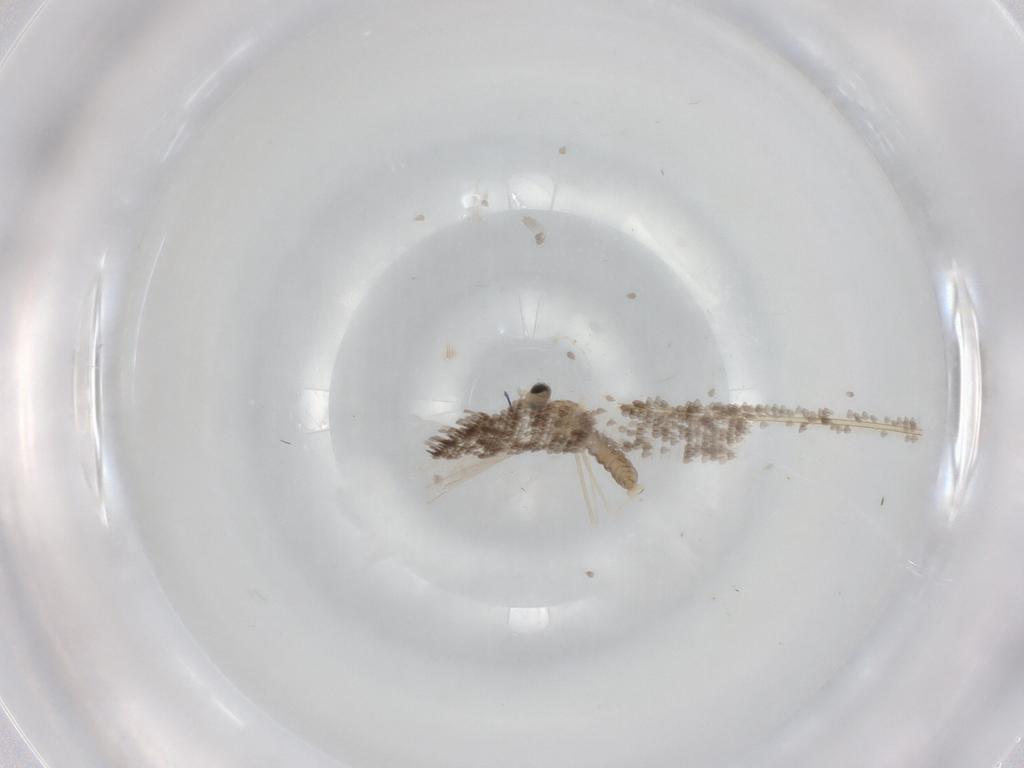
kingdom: Animalia
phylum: Arthropoda
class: Insecta
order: Diptera
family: Cecidomyiidae
